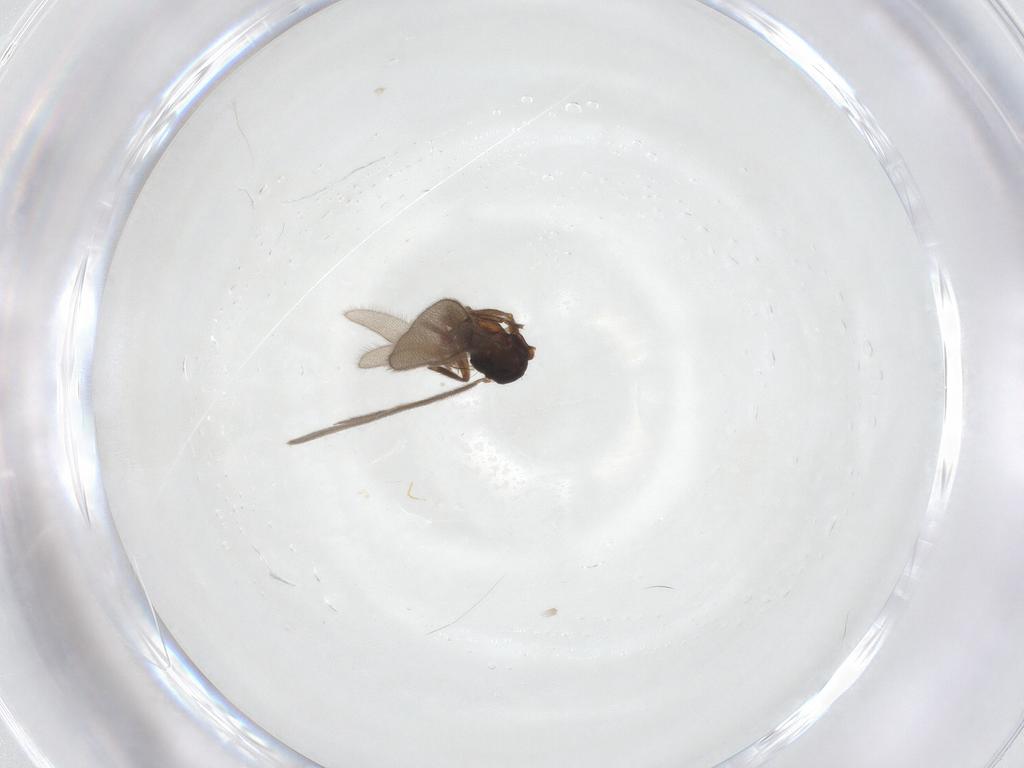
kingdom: Animalia
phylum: Arthropoda
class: Insecta
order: Hymenoptera
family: Formicidae
